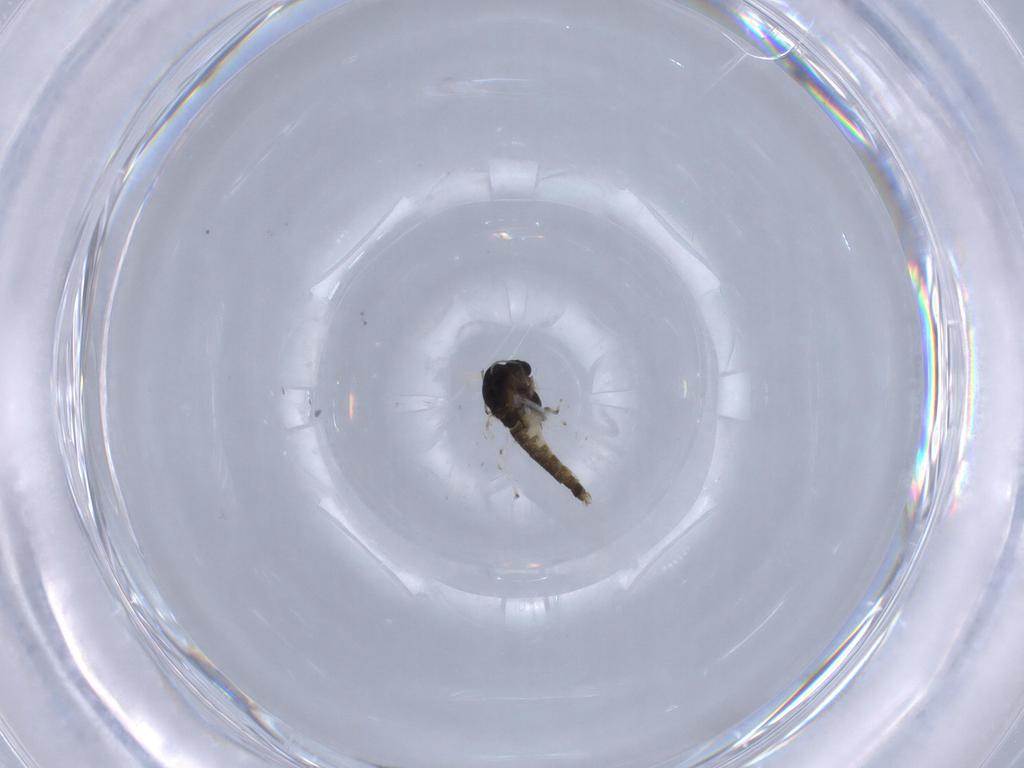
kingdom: Animalia
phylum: Arthropoda
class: Insecta
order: Diptera
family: Chironomidae
